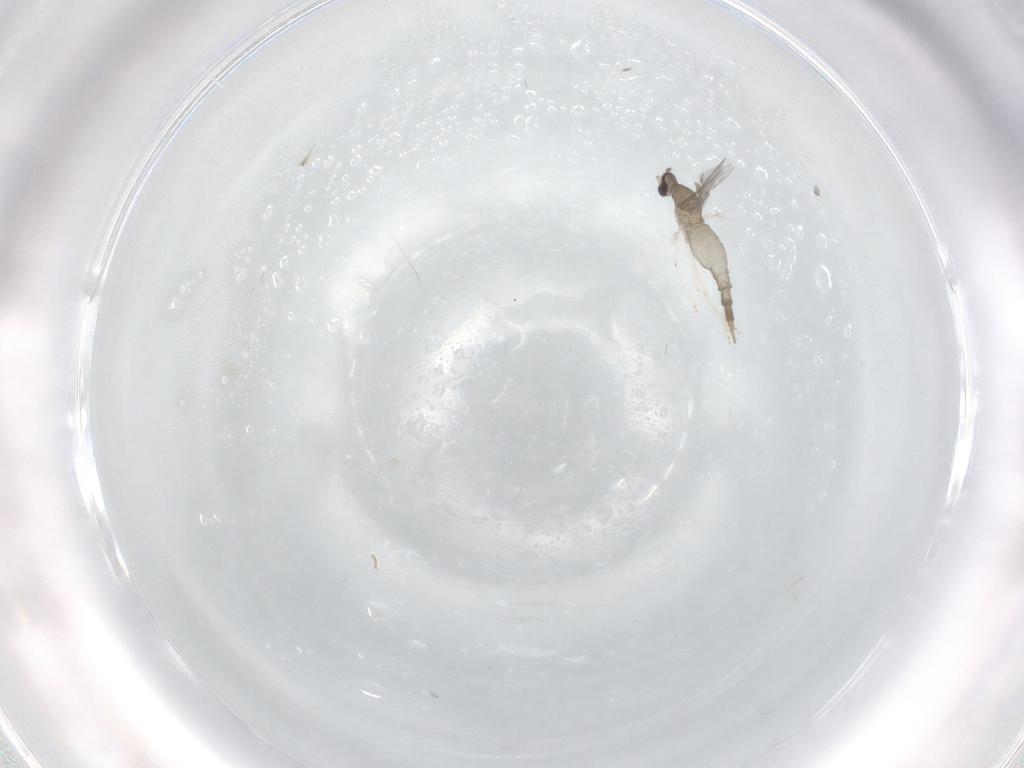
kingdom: Animalia
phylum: Arthropoda
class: Insecta
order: Diptera
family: Cecidomyiidae
